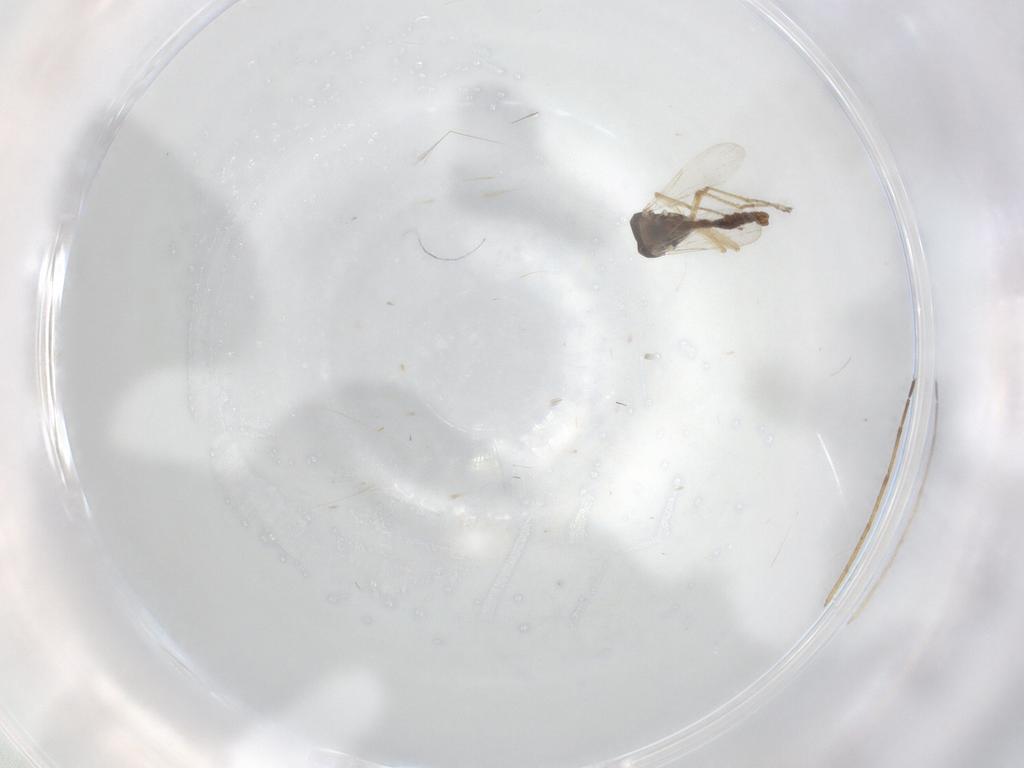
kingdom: Animalia
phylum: Arthropoda
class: Insecta
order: Diptera
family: Ceratopogonidae
